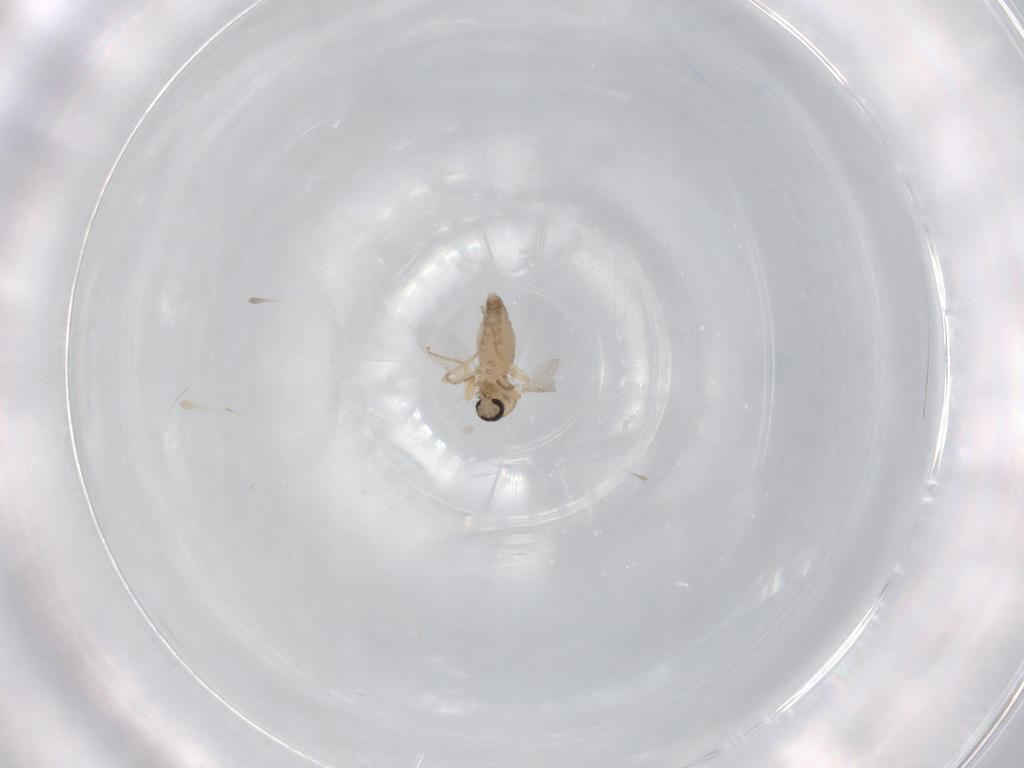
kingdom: Animalia
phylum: Arthropoda
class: Insecta
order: Diptera
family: Ceratopogonidae
